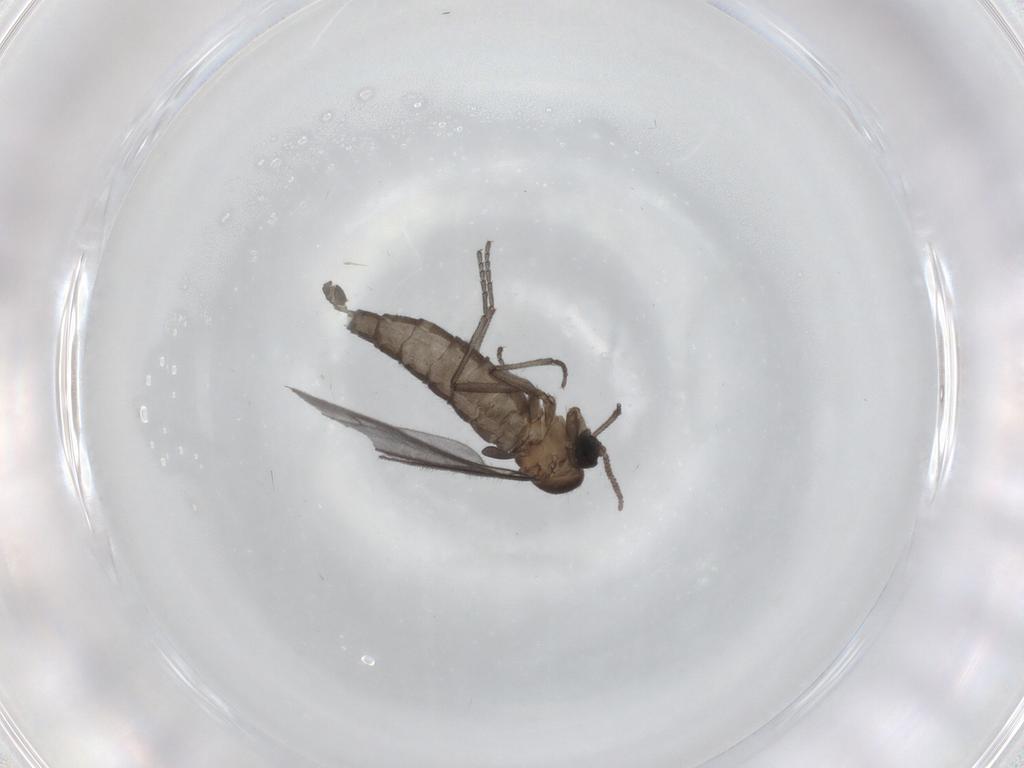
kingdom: Animalia
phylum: Arthropoda
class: Insecta
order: Diptera
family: Sciaridae
